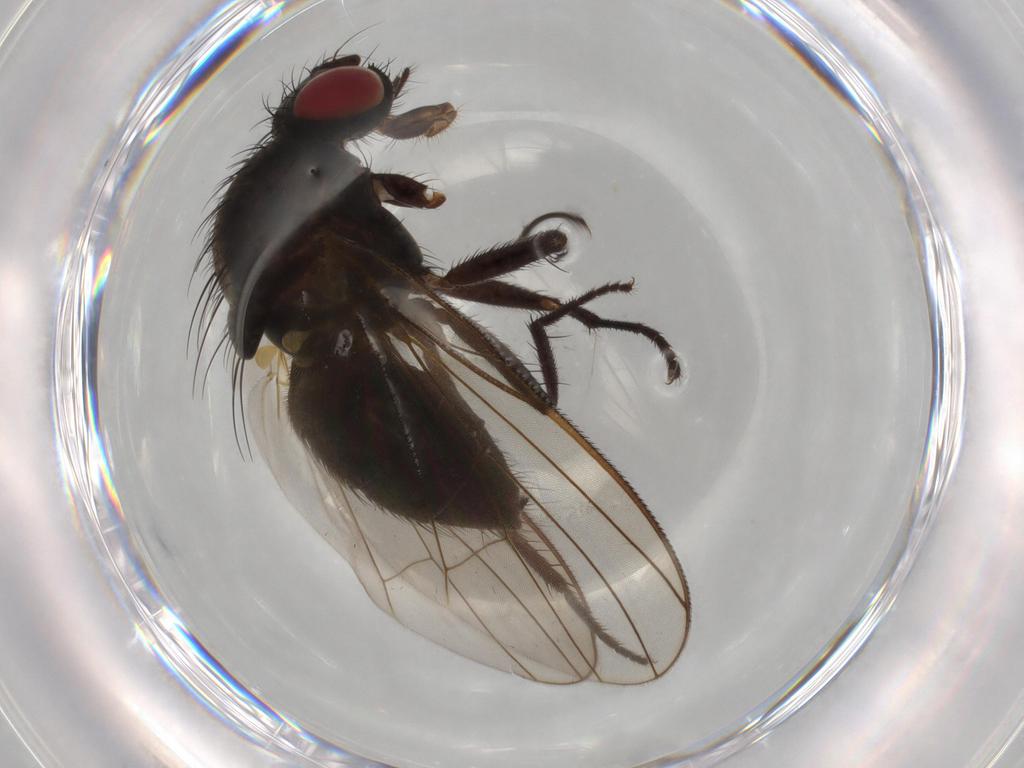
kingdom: Animalia
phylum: Arthropoda
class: Insecta
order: Diptera
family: Muscidae
